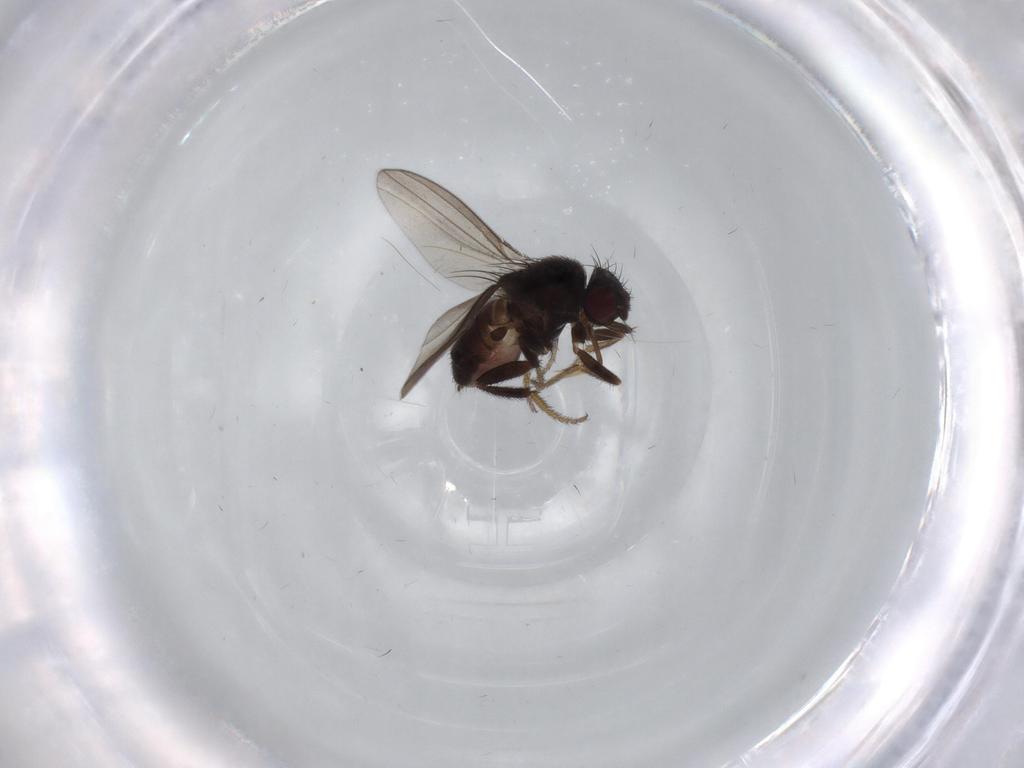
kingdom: Animalia
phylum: Arthropoda
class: Insecta
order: Diptera
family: Milichiidae
